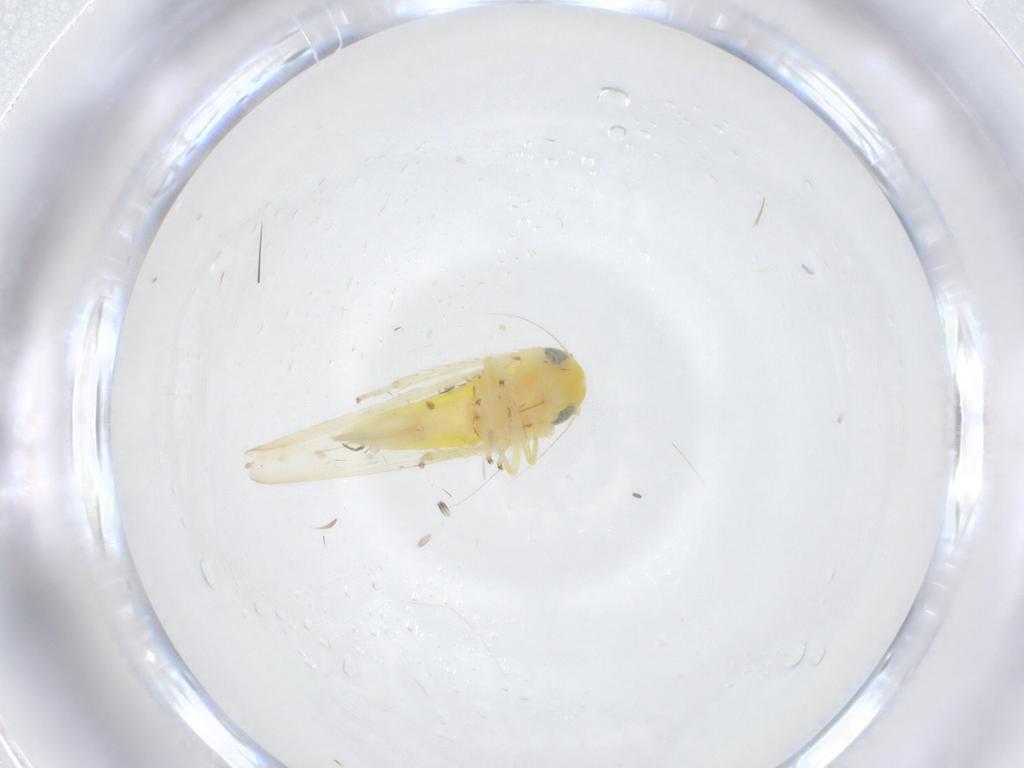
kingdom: Animalia
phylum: Arthropoda
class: Insecta
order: Hemiptera
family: Cicadellidae
